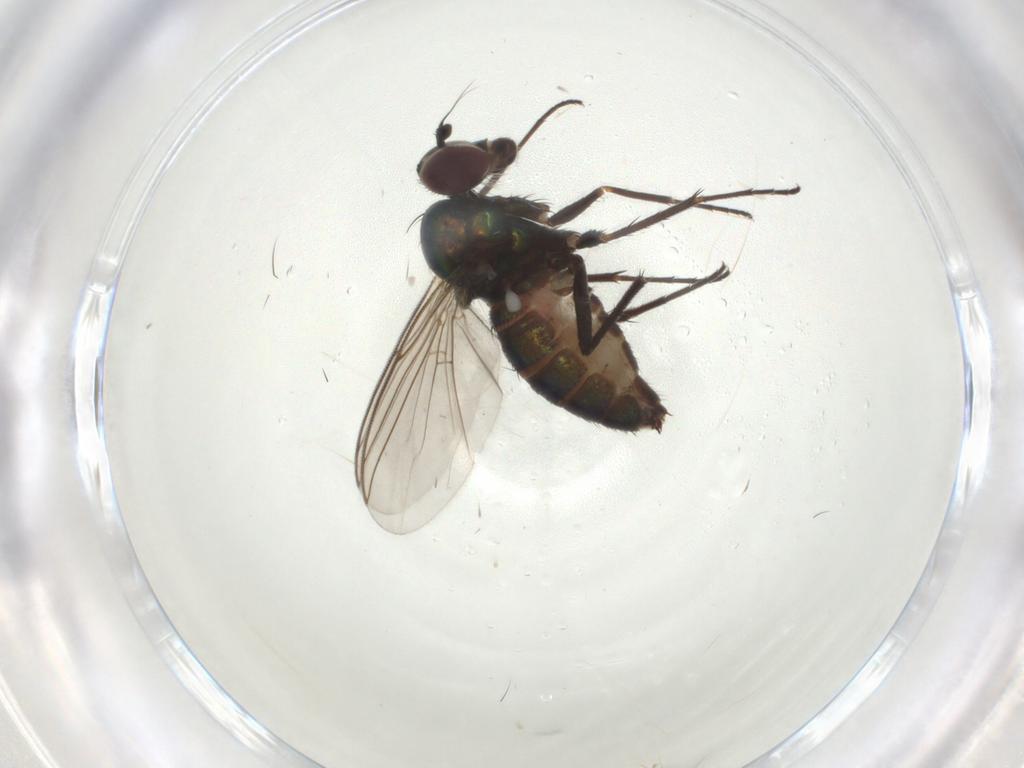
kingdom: Animalia
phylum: Arthropoda
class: Insecta
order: Diptera
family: Dolichopodidae
